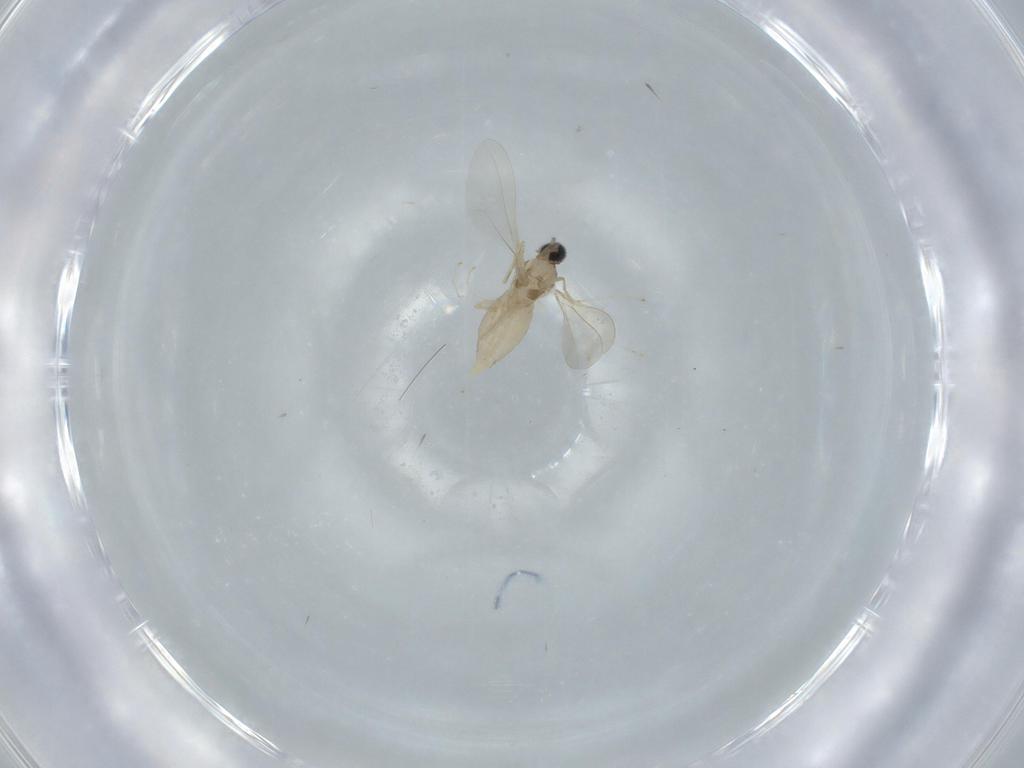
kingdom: Animalia
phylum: Arthropoda
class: Insecta
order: Diptera
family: Cecidomyiidae
